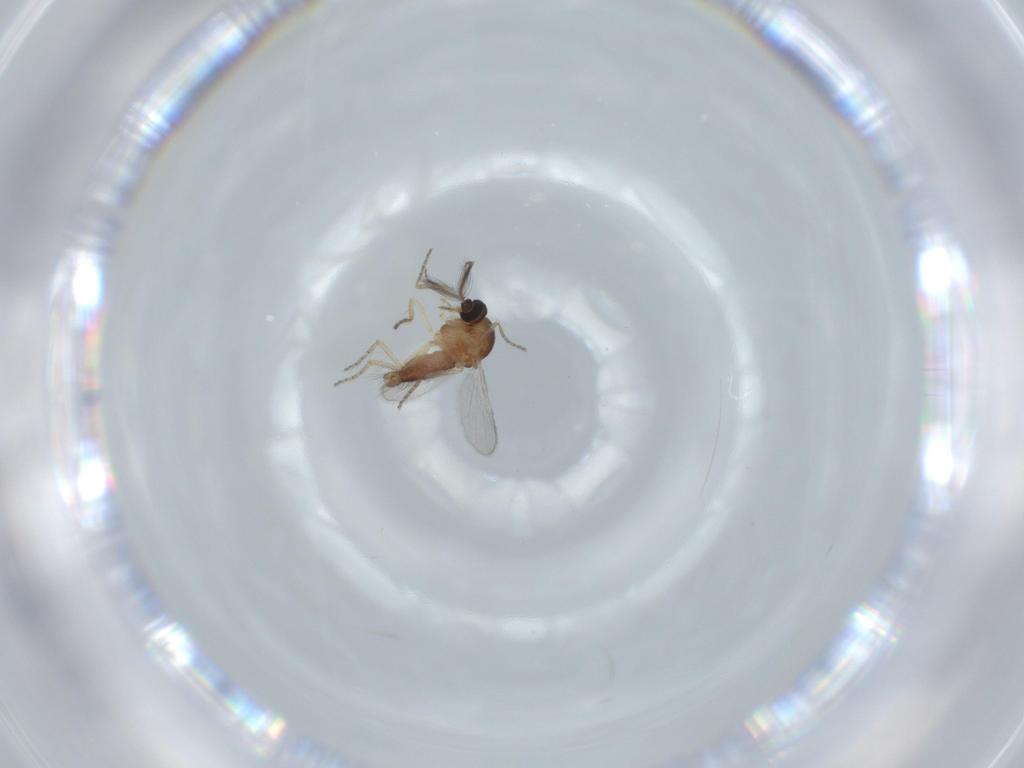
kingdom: Animalia
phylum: Arthropoda
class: Insecta
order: Diptera
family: Ceratopogonidae
